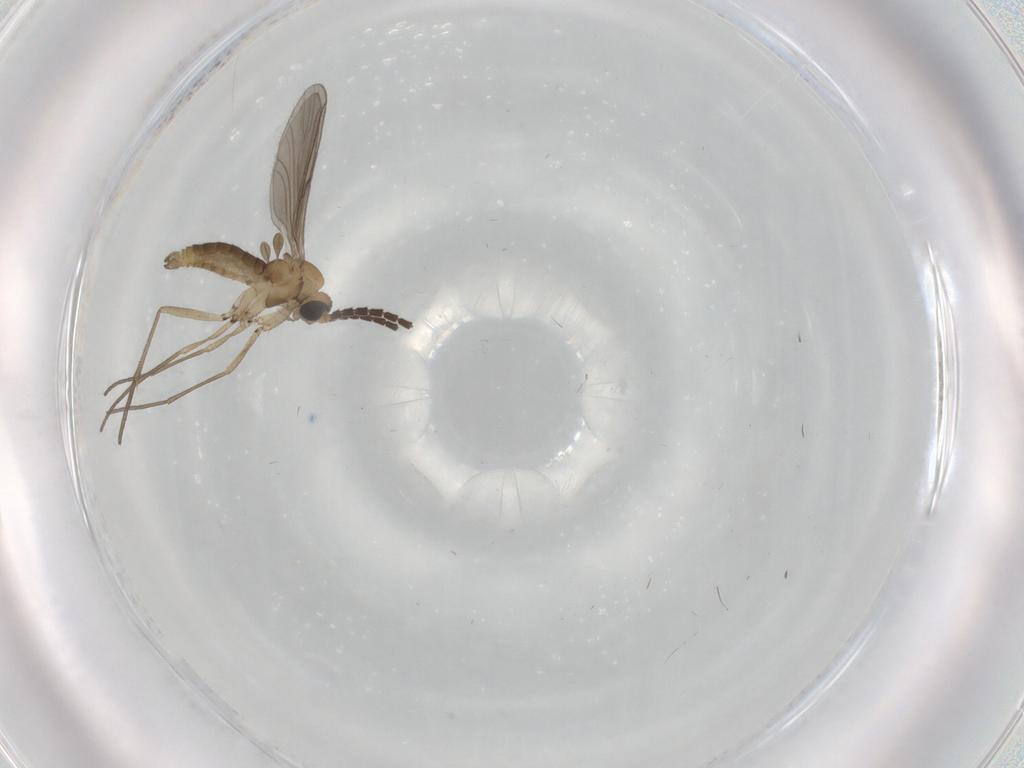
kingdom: Animalia
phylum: Arthropoda
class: Insecta
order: Diptera
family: Sciaridae
